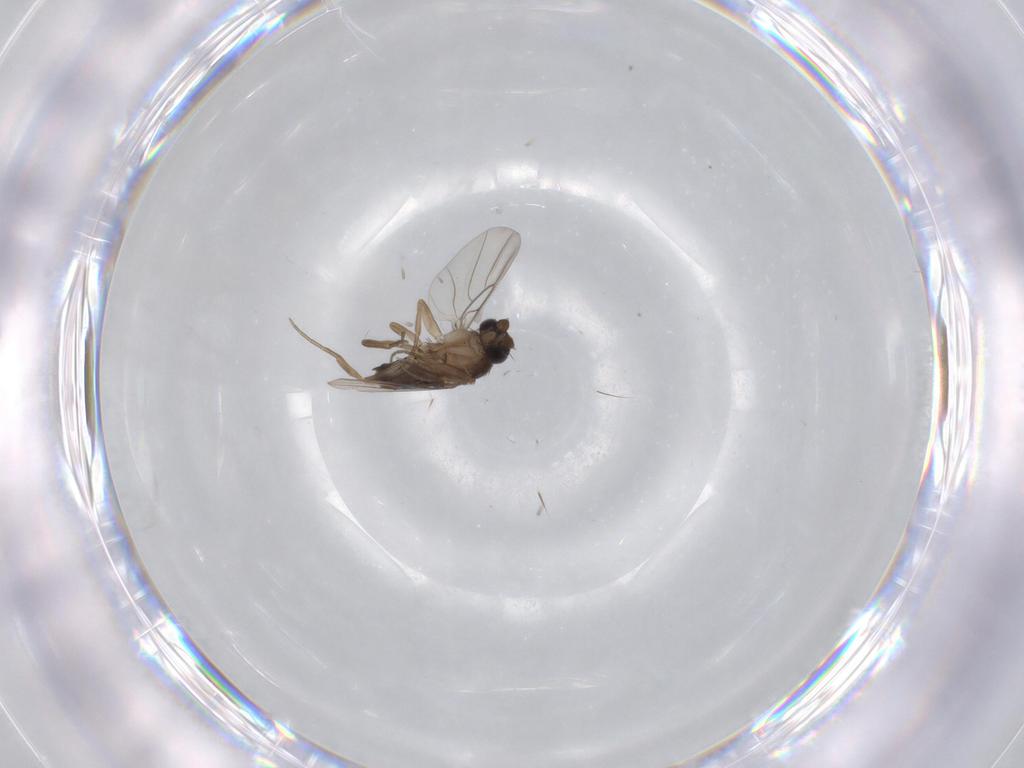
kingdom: Animalia
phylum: Arthropoda
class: Insecta
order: Diptera
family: Phoridae
